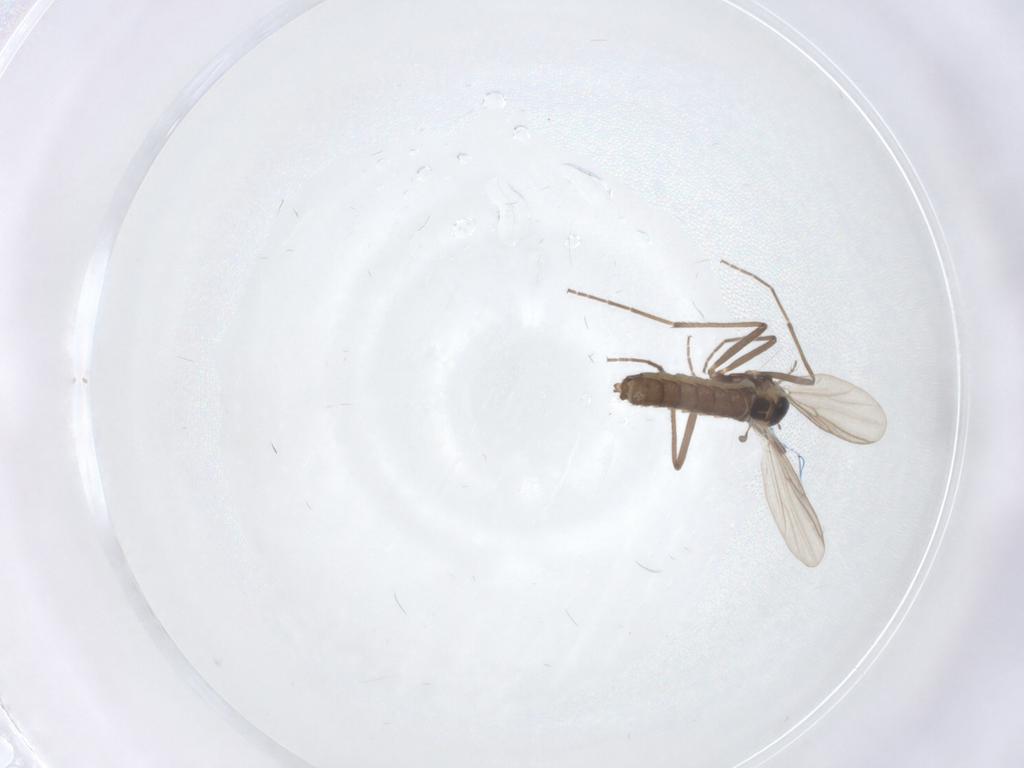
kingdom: Animalia
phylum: Arthropoda
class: Insecta
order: Diptera
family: Chironomidae
